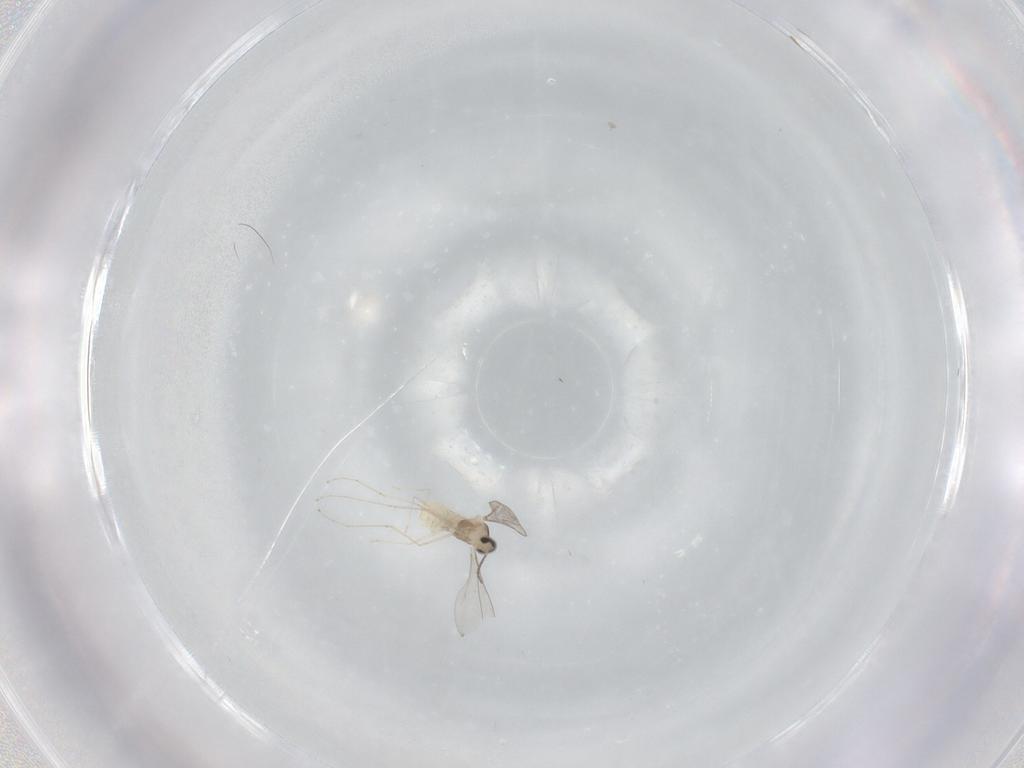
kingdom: Animalia
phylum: Arthropoda
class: Insecta
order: Diptera
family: Cecidomyiidae
